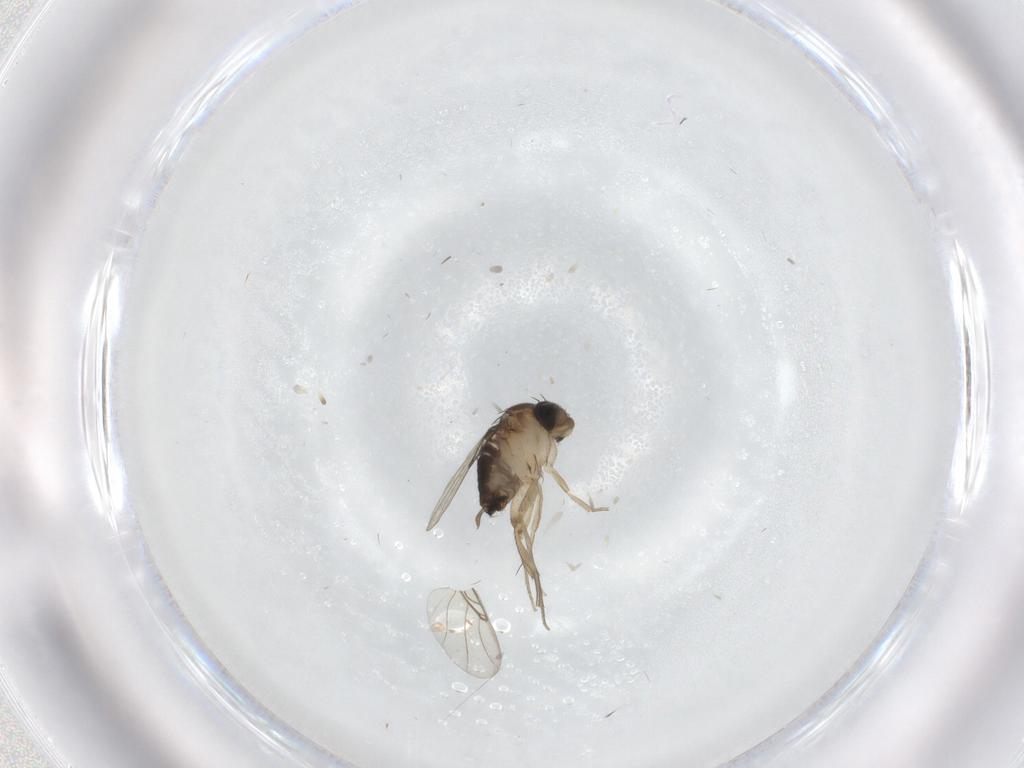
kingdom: Animalia
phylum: Arthropoda
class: Insecta
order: Diptera
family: Psychodidae
